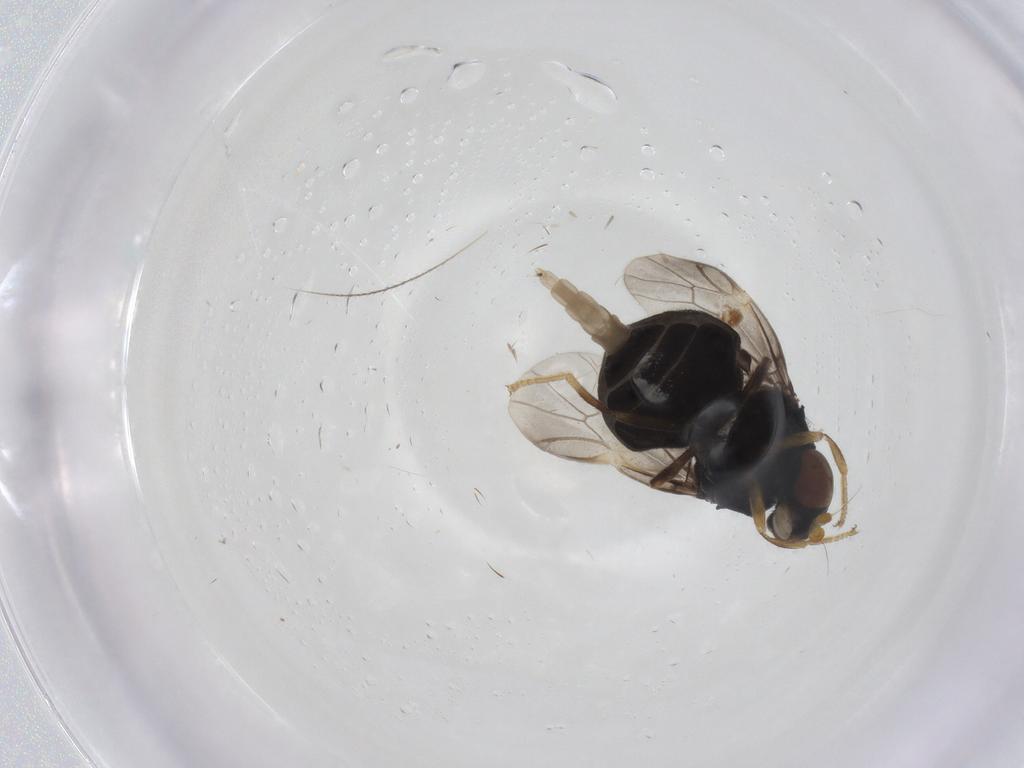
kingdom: Animalia
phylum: Arthropoda
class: Insecta
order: Diptera
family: Stratiomyidae
